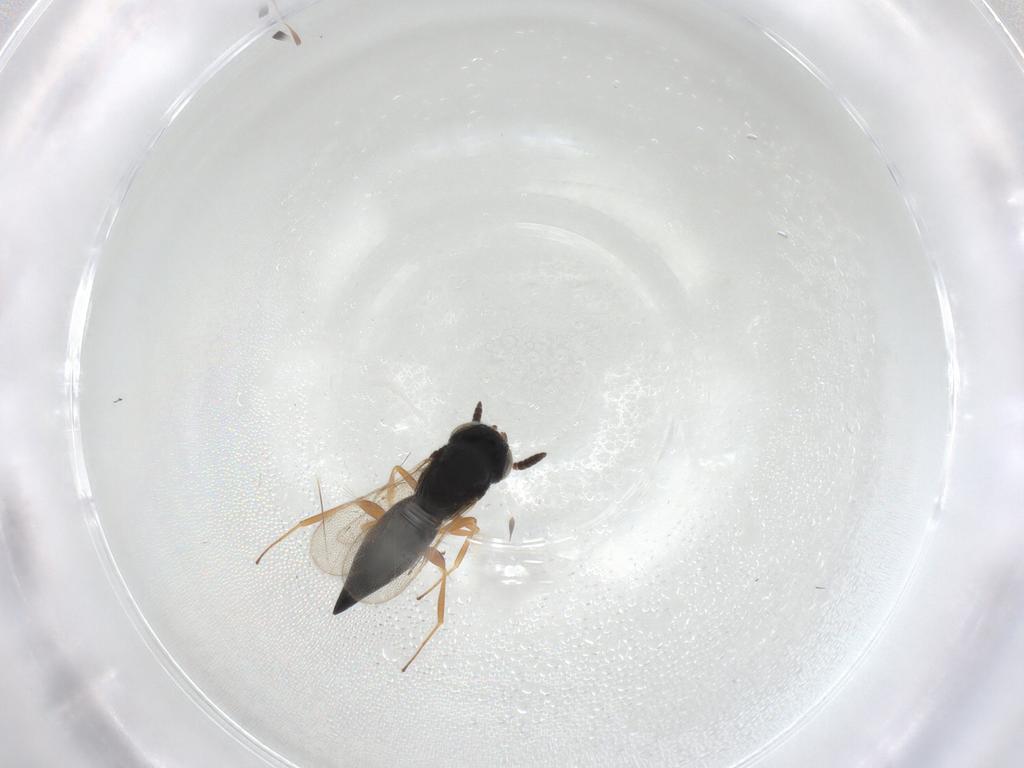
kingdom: Animalia
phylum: Arthropoda
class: Insecta
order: Hymenoptera
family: Scelionidae
